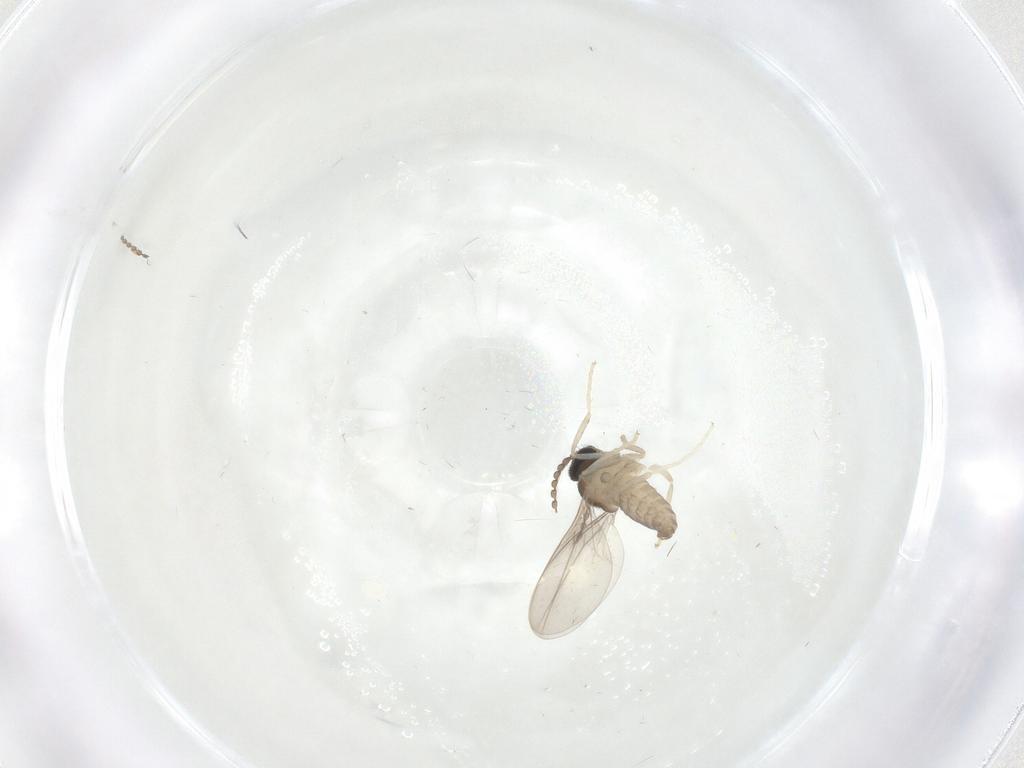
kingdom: Animalia
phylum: Arthropoda
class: Insecta
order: Diptera
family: Cecidomyiidae
